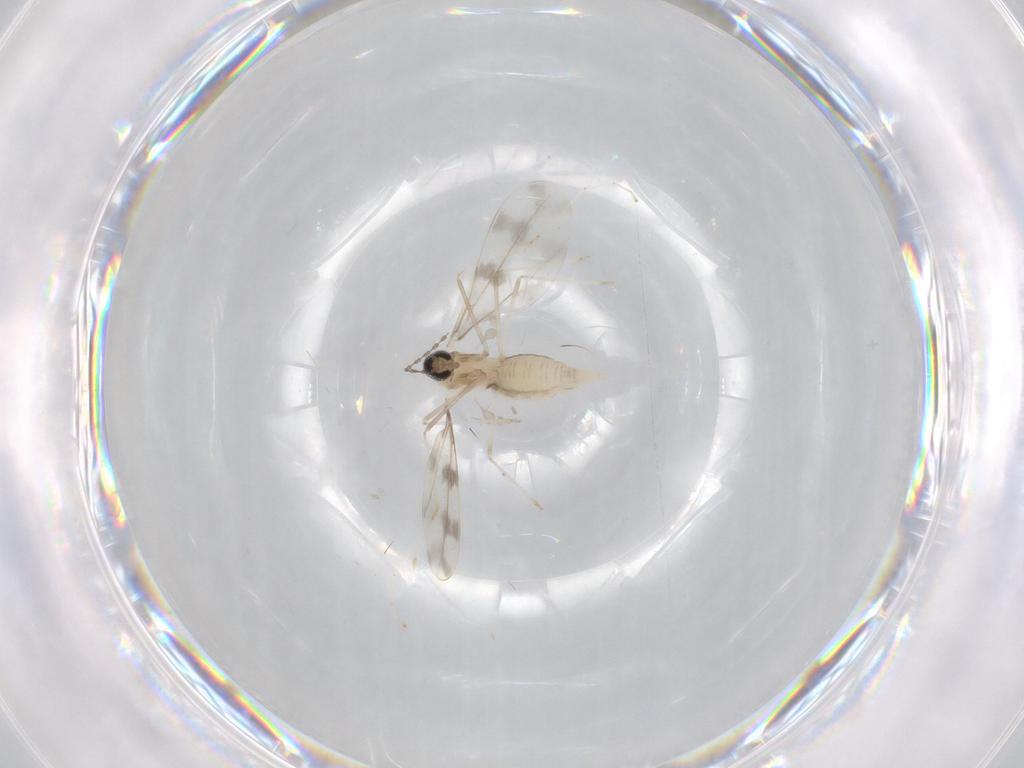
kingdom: Animalia
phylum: Arthropoda
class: Insecta
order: Diptera
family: Cecidomyiidae
